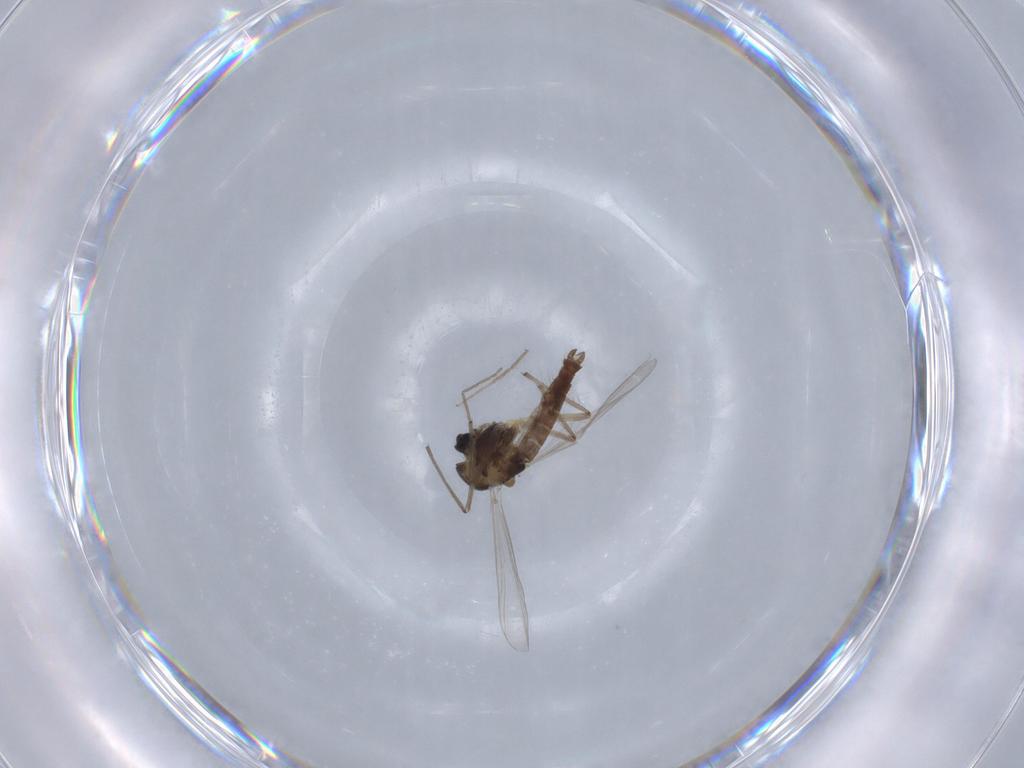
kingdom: Animalia
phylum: Arthropoda
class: Insecta
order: Diptera
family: Chironomidae
